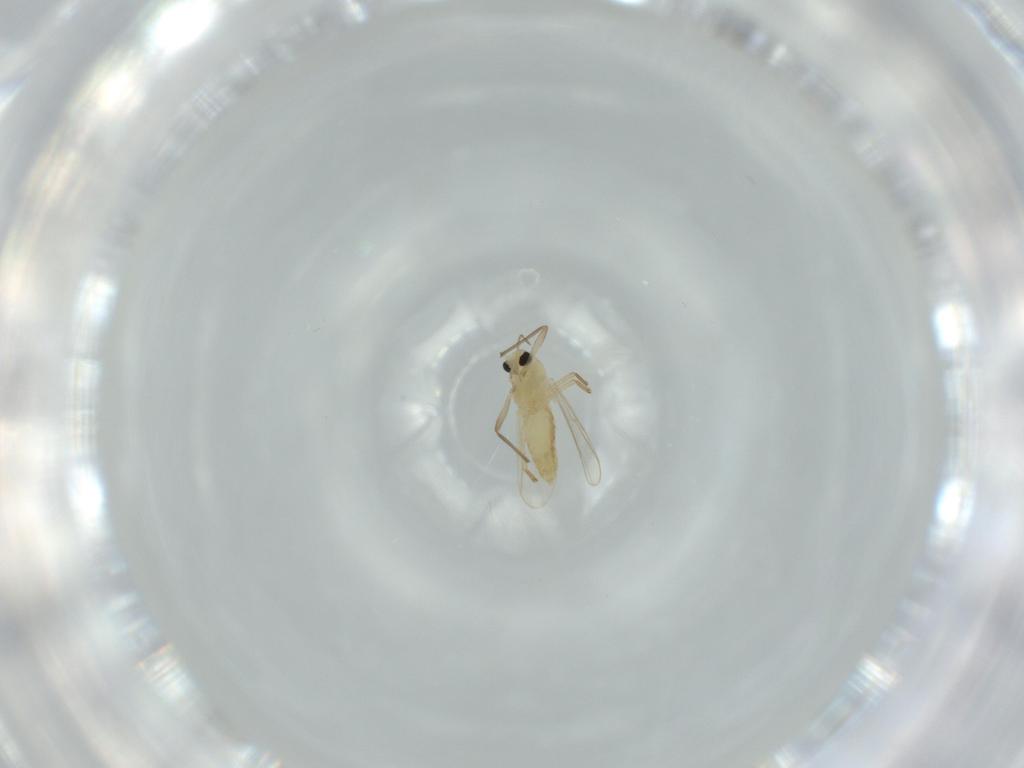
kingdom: Animalia
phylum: Arthropoda
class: Insecta
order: Diptera
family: Chironomidae
